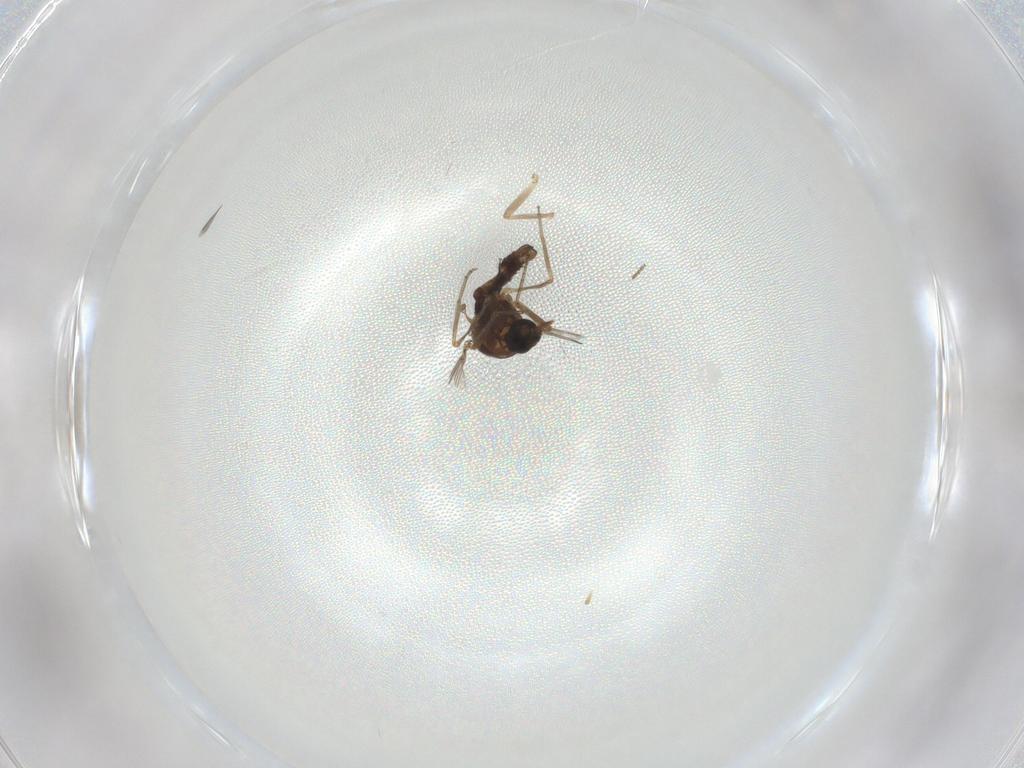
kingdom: Animalia
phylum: Arthropoda
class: Insecta
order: Diptera
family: Ceratopogonidae
